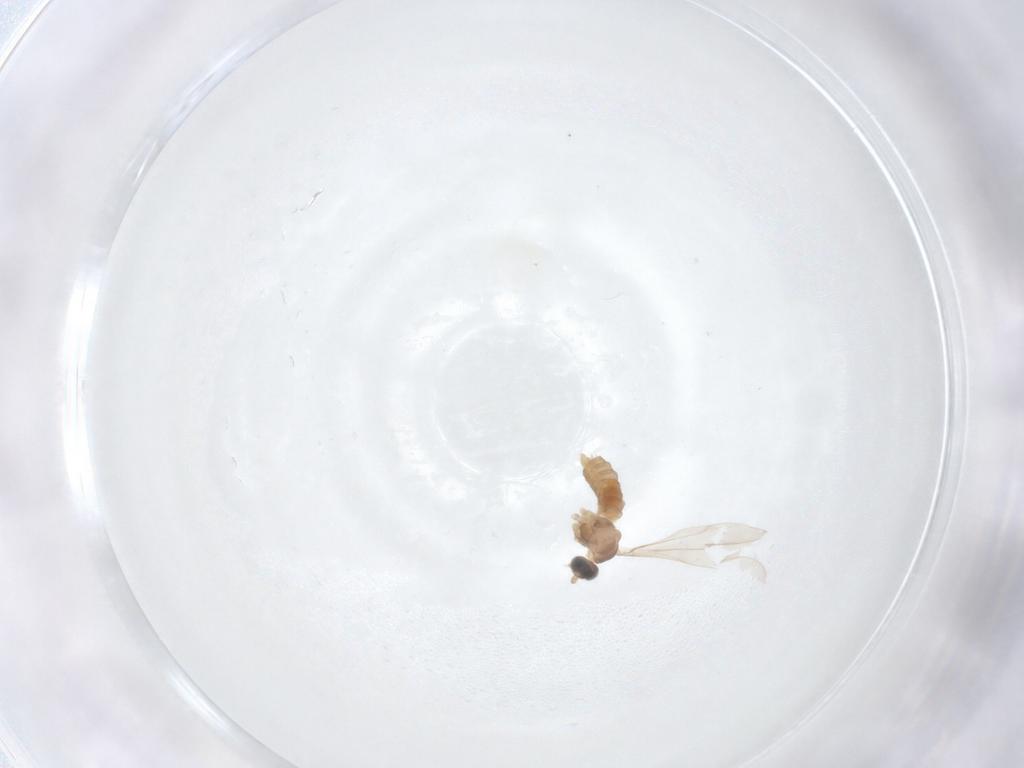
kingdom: Animalia
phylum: Arthropoda
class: Insecta
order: Diptera
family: Cecidomyiidae
